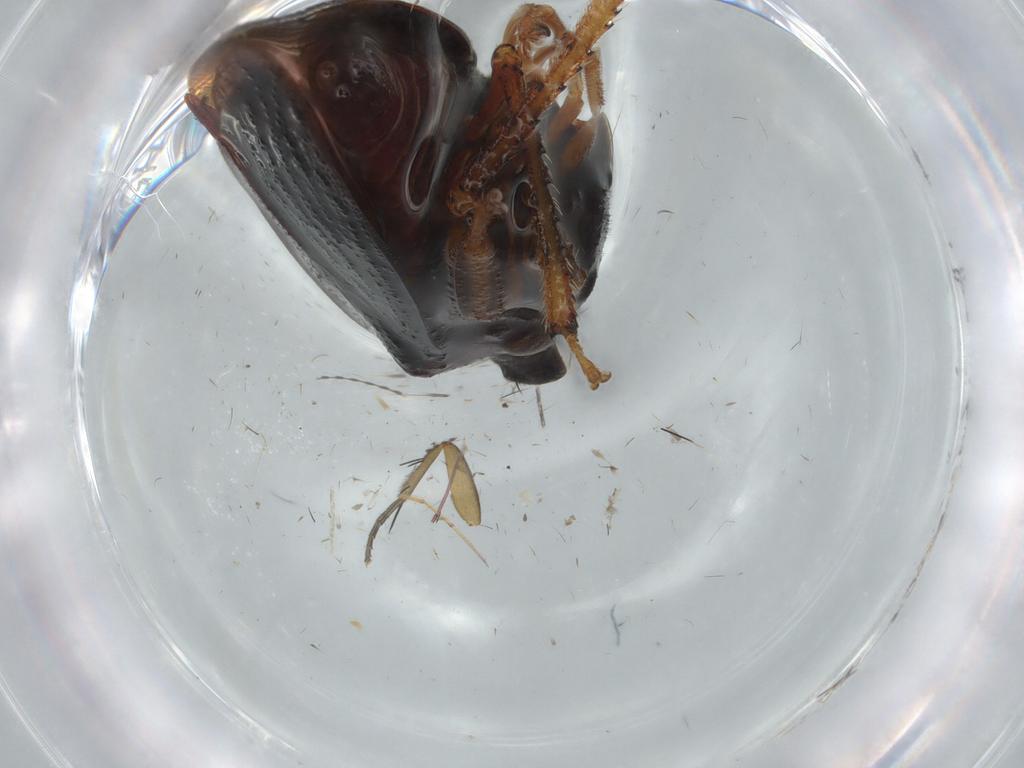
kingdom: Animalia
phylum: Arthropoda
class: Insecta
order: Hemiptera
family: Membracidae
